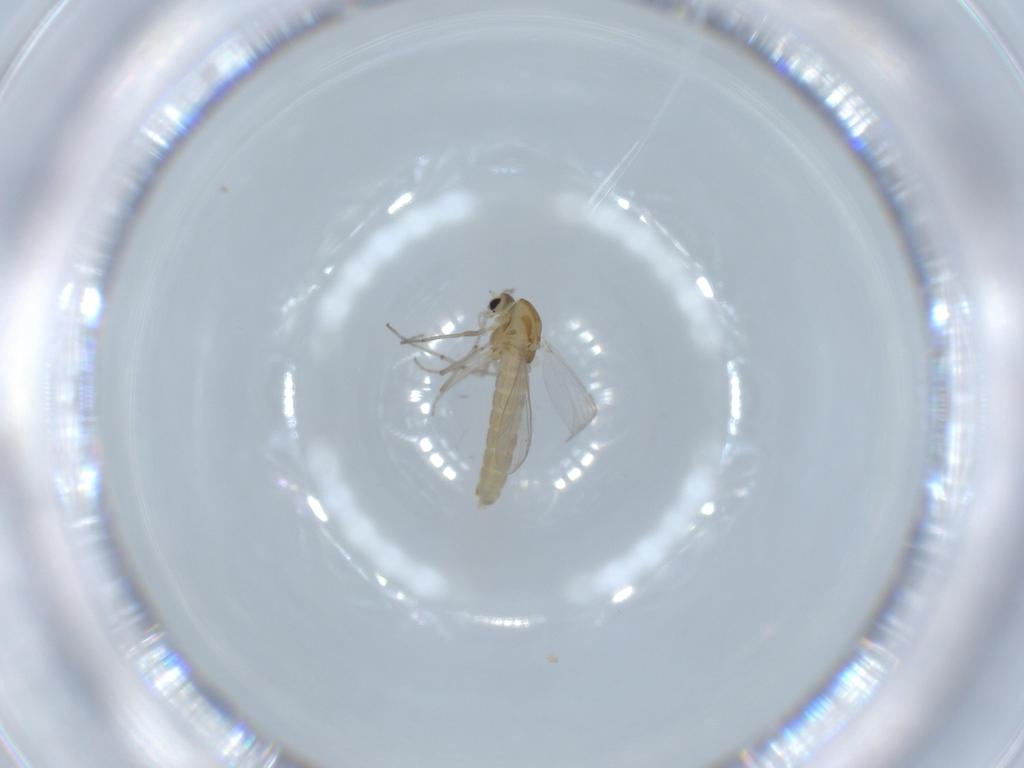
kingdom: Animalia
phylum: Arthropoda
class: Insecta
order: Diptera
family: Chironomidae
